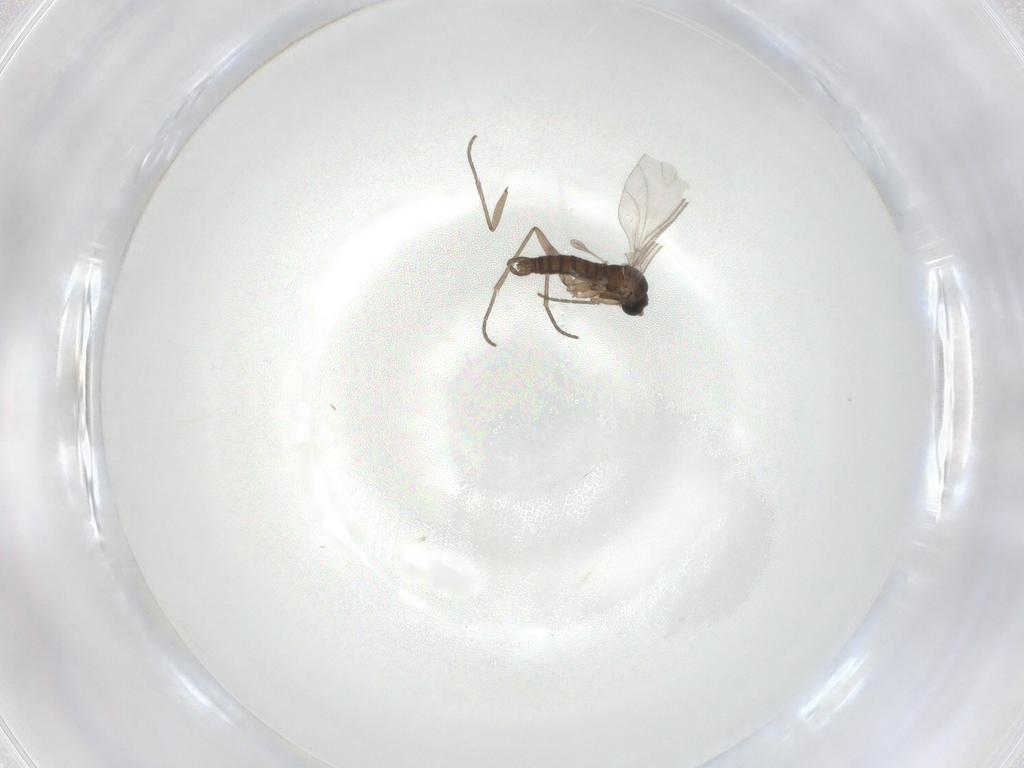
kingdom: Animalia
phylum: Arthropoda
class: Insecta
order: Diptera
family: Sciaridae
